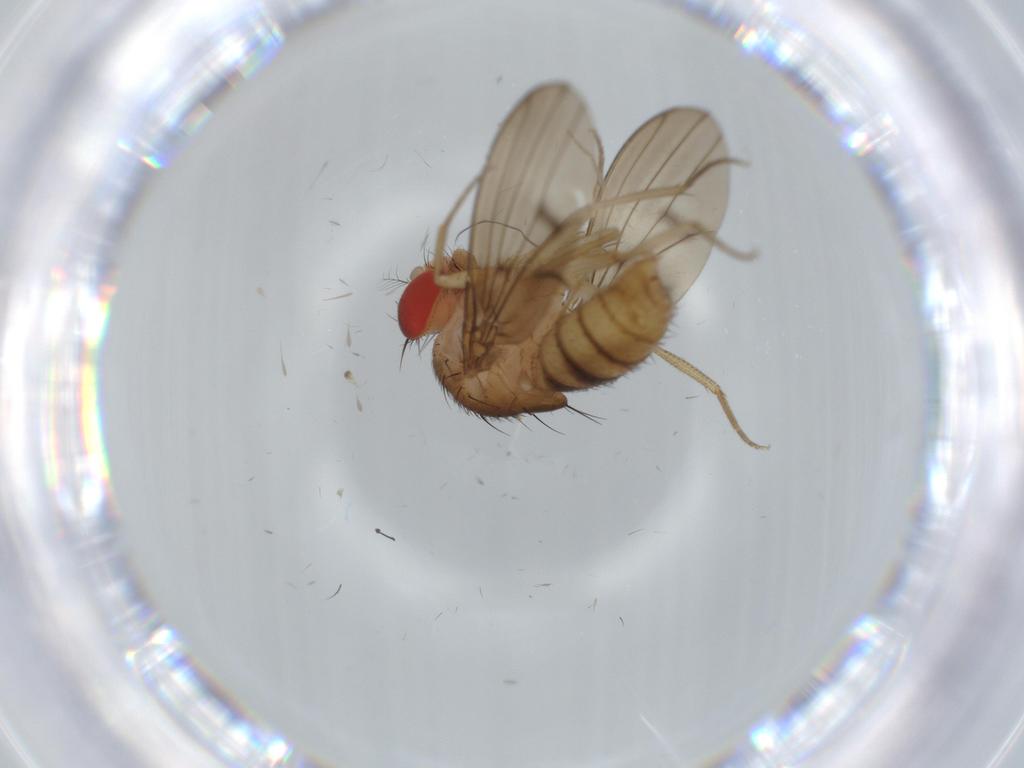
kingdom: Animalia
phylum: Arthropoda
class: Insecta
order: Diptera
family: Drosophilidae
